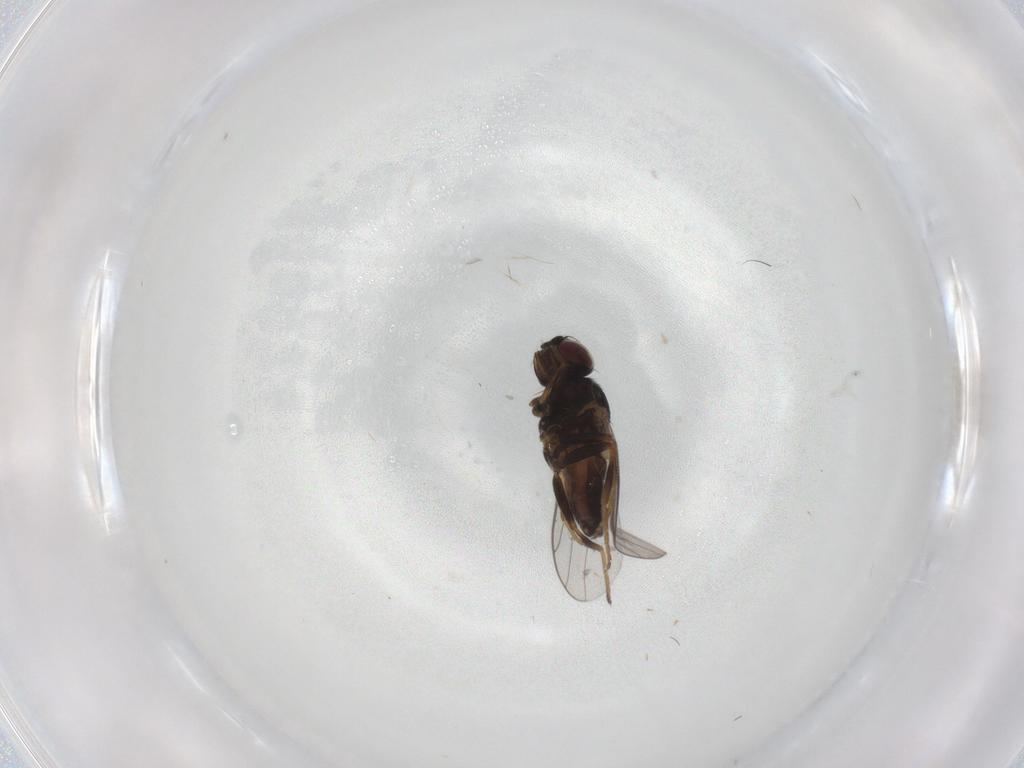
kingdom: Animalia
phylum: Arthropoda
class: Insecta
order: Diptera
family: Chloropidae
